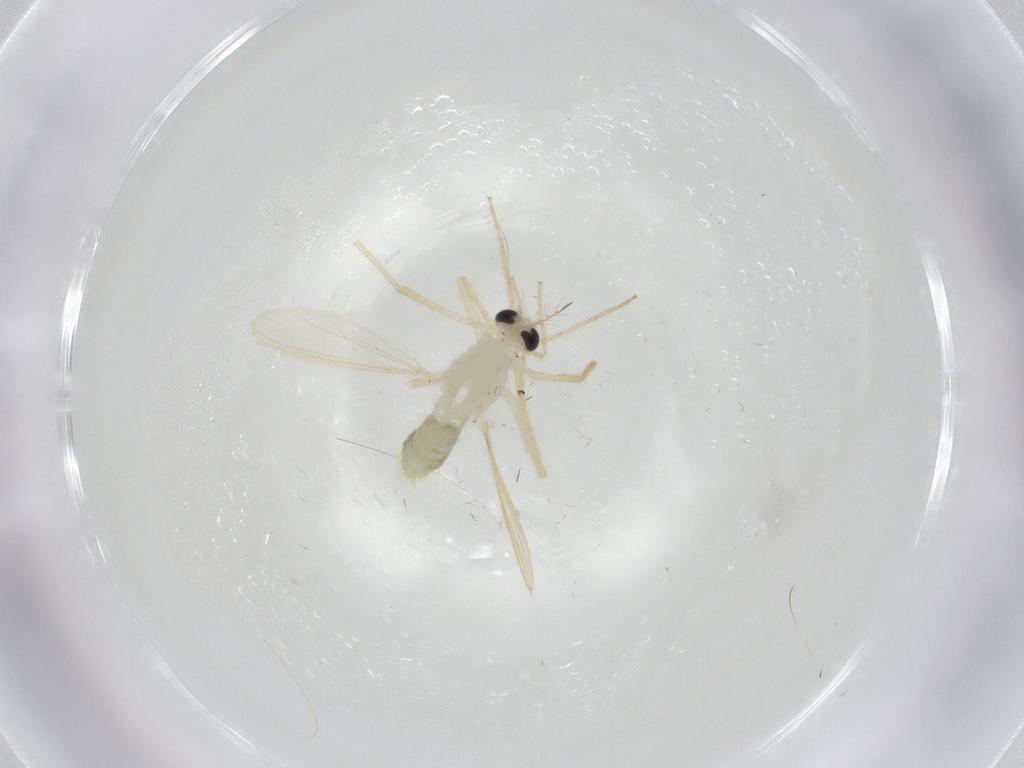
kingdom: Animalia
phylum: Arthropoda
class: Insecta
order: Diptera
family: Chironomidae
